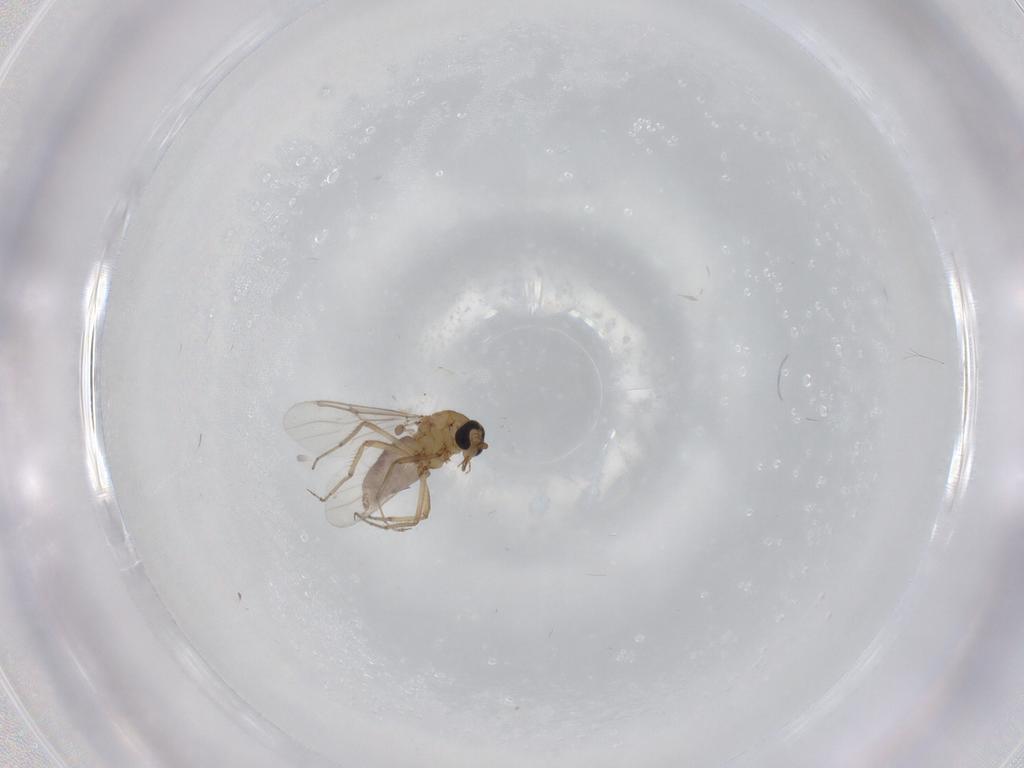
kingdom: Animalia
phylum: Arthropoda
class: Insecta
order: Diptera
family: Ceratopogonidae
